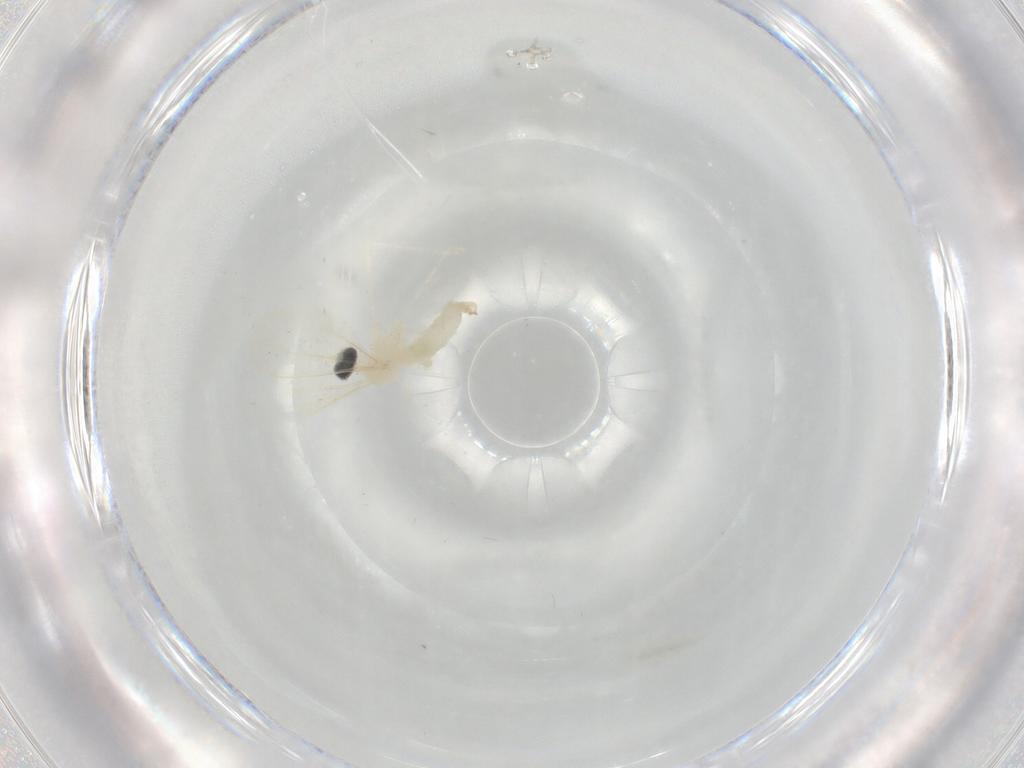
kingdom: Animalia
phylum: Arthropoda
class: Insecta
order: Diptera
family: Cecidomyiidae
